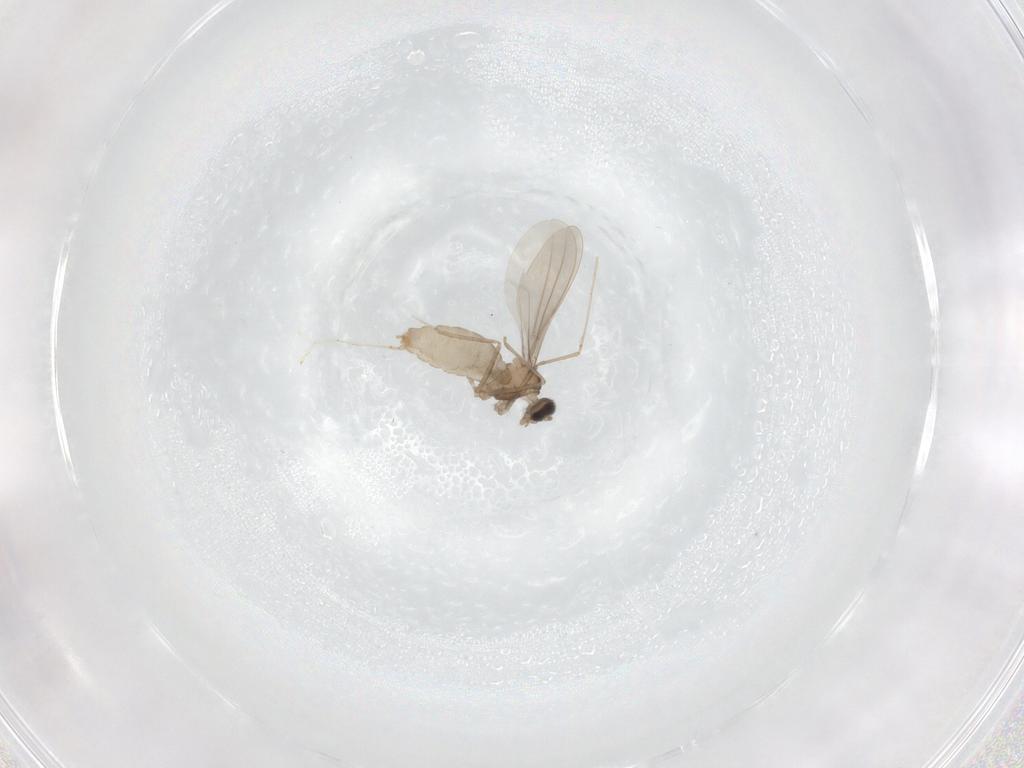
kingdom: Animalia
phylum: Arthropoda
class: Insecta
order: Diptera
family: Cecidomyiidae
